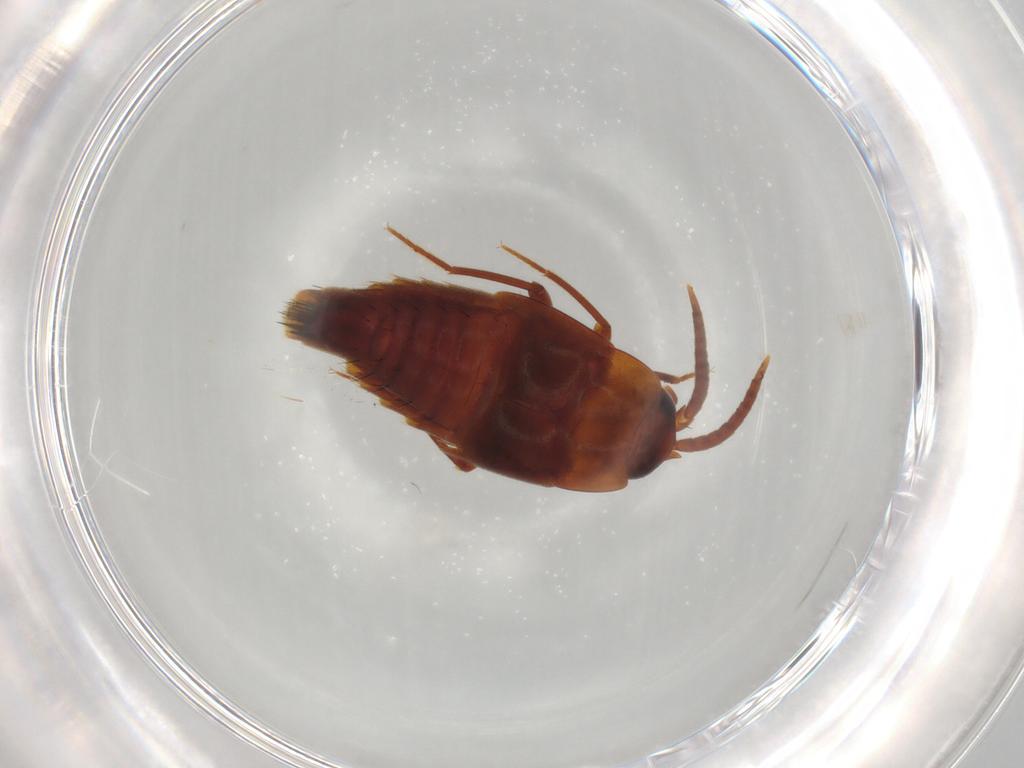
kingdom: Animalia
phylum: Arthropoda
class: Insecta
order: Coleoptera
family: Staphylinidae
